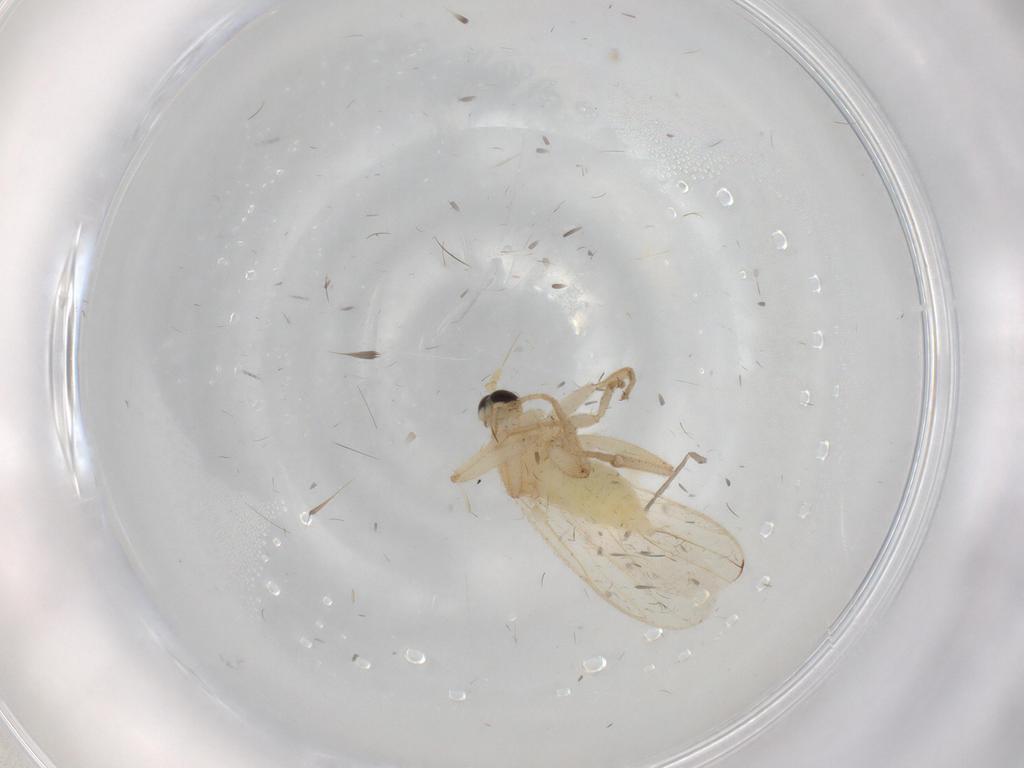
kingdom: Animalia
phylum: Arthropoda
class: Insecta
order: Diptera
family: Hybotidae
